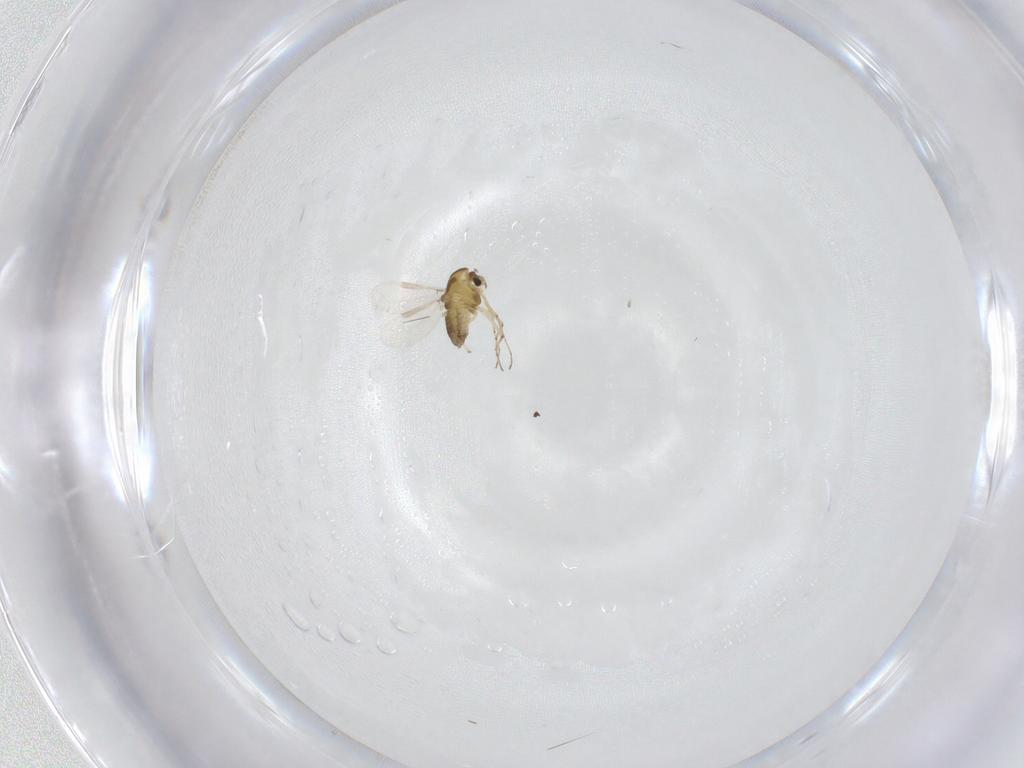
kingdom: Animalia
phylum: Arthropoda
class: Insecta
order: Diptera
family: Chironomidae
